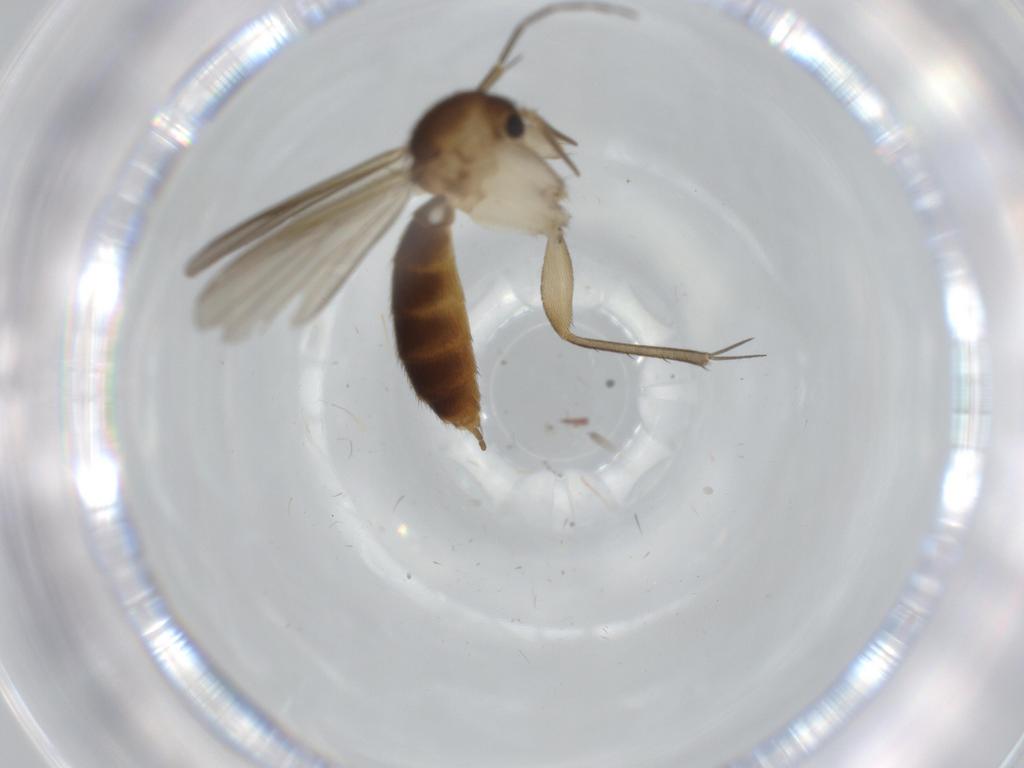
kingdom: Animalia
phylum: Arthropoda
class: Insecta
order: Diptera
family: Mycetophilidae
